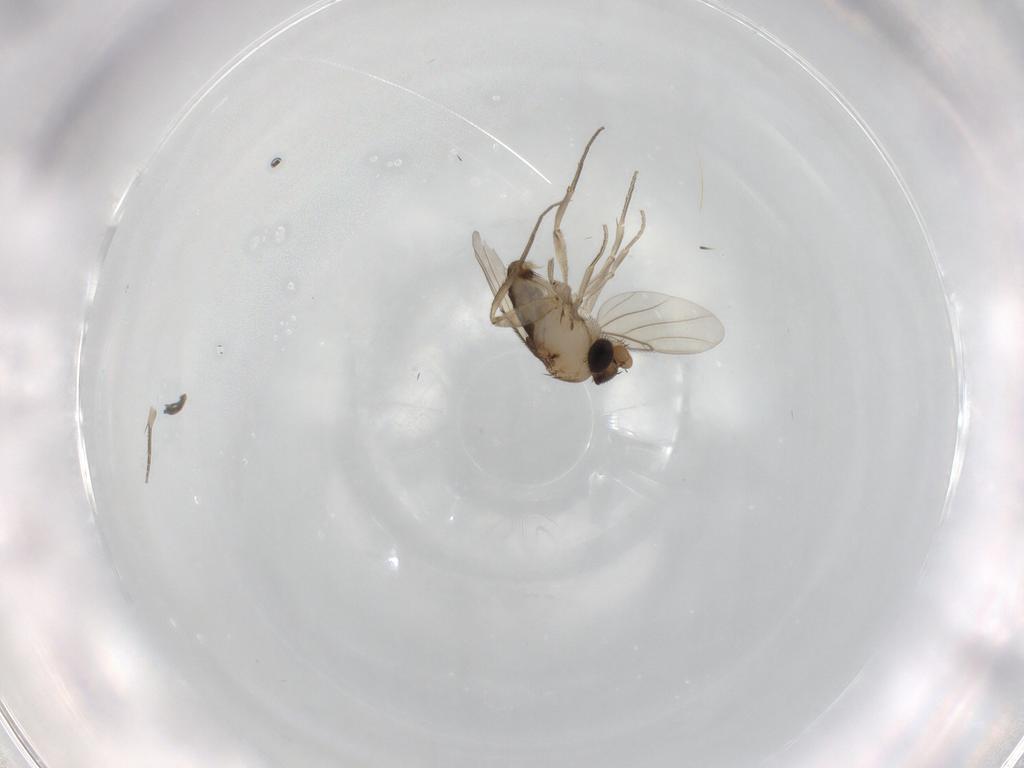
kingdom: Animalia
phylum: Arthropoda
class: Insecta
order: Diptera
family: Phoridae
